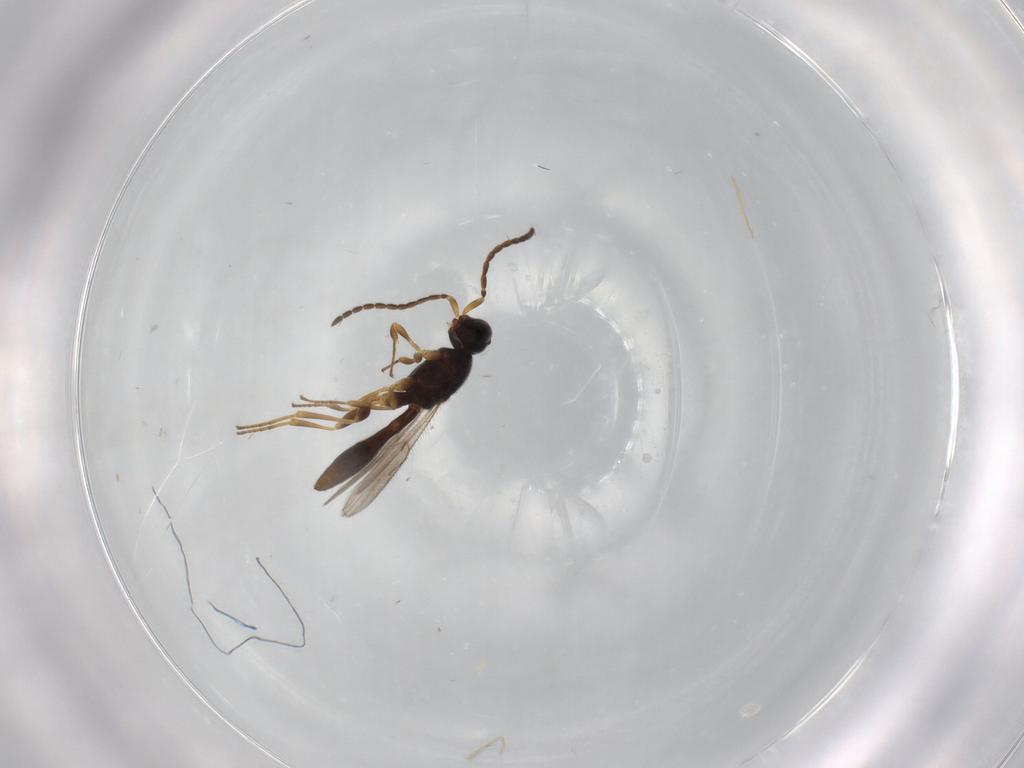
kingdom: Animalia
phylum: Arthropoda
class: Insecta
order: Hymenoptera
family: Scelionidae
